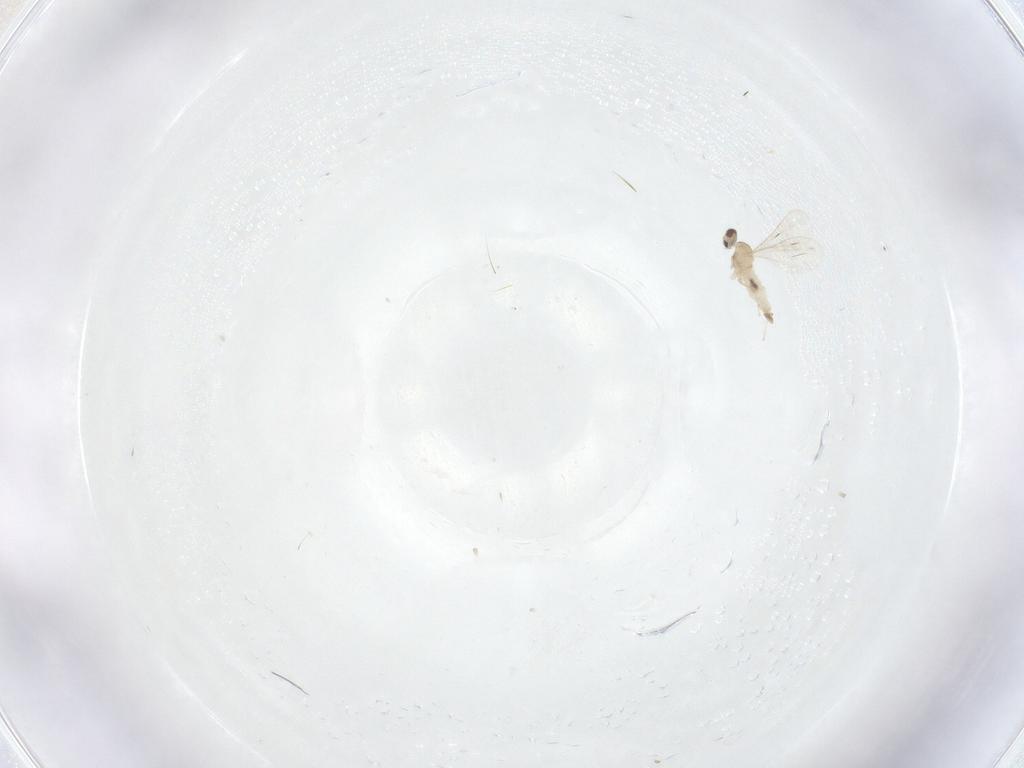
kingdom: Animalia
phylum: Arthropoda
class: Insecta
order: Diptera
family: Cecidomyiidae
